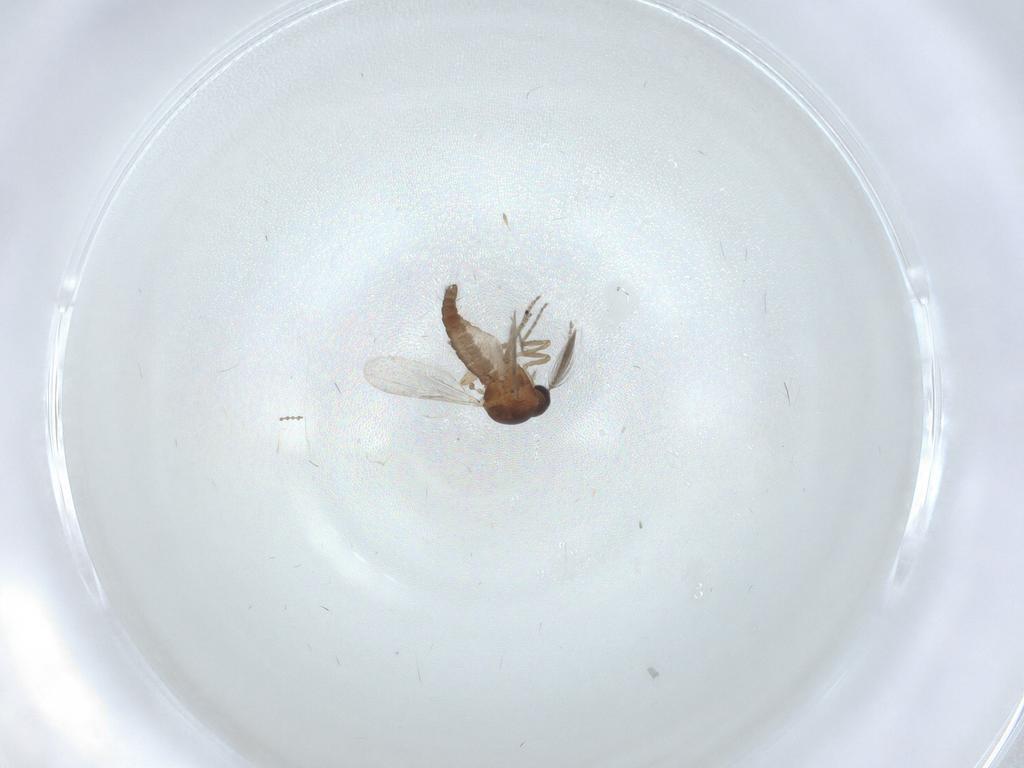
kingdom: Animalia
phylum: Arthropoda
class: Insecta
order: Diptera
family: Ceratopogonidae
